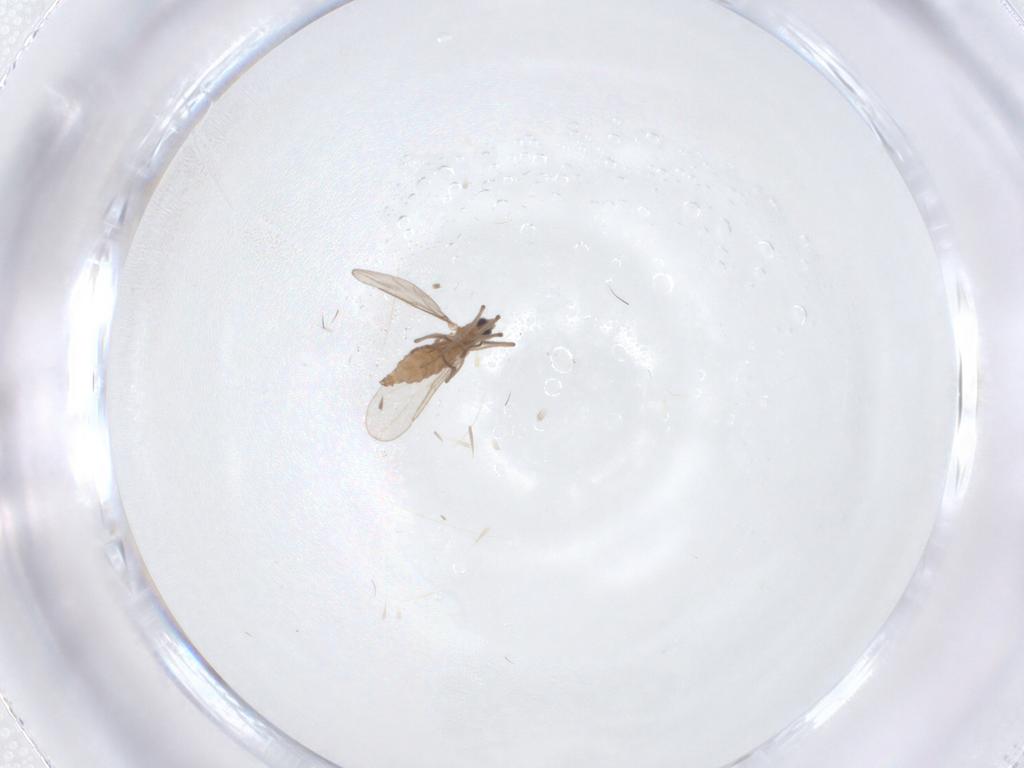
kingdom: Animalia
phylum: Arthropoda
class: Insecta
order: Diptera
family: Cecidomyiidae
